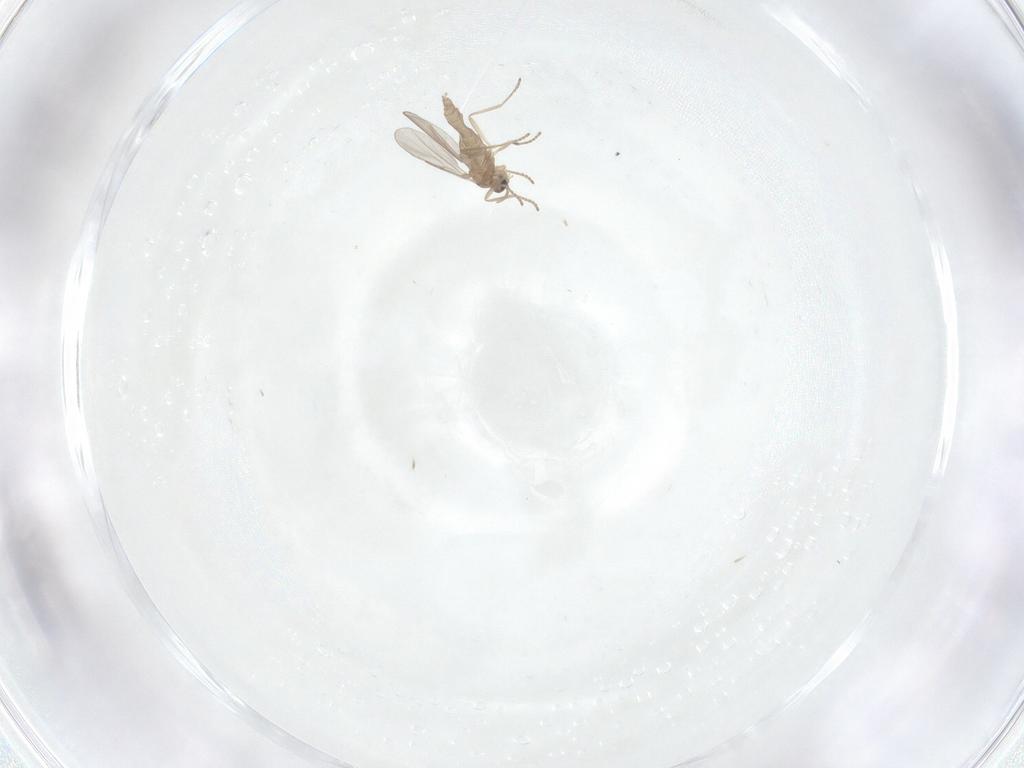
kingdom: Animalia
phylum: Arthropoda
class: Insecta
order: Diptera
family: Cecidomyiidae
